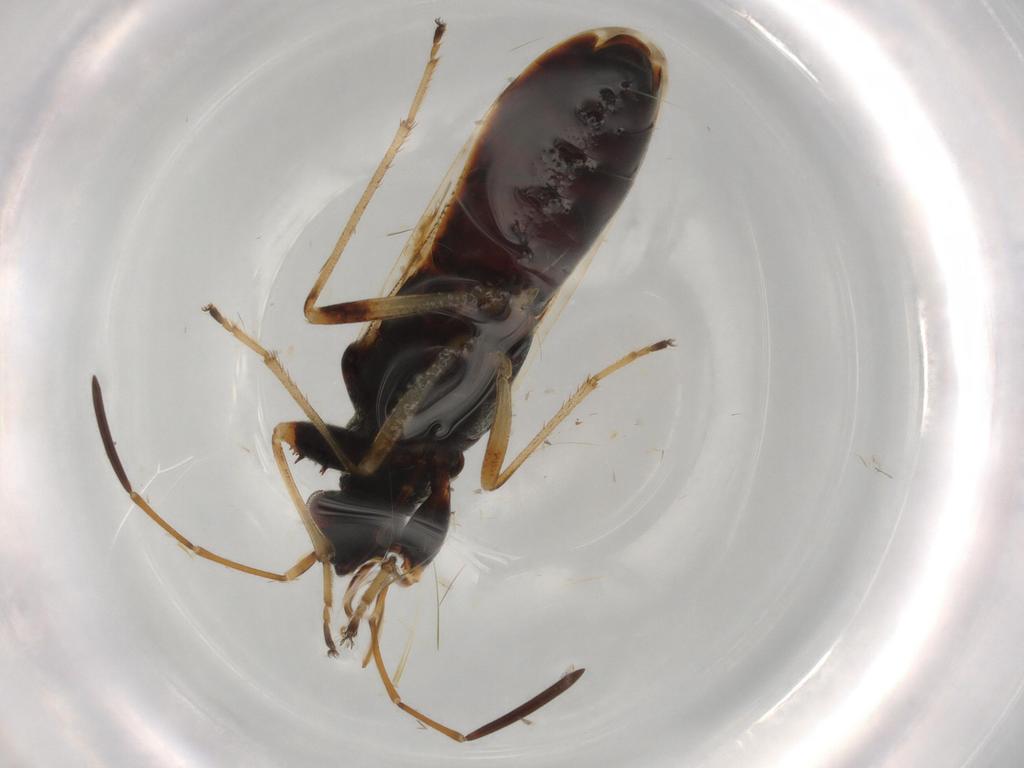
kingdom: Animalia
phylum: Arthropoda
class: Insecta
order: Hemiptera
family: Rhyparochromidae
